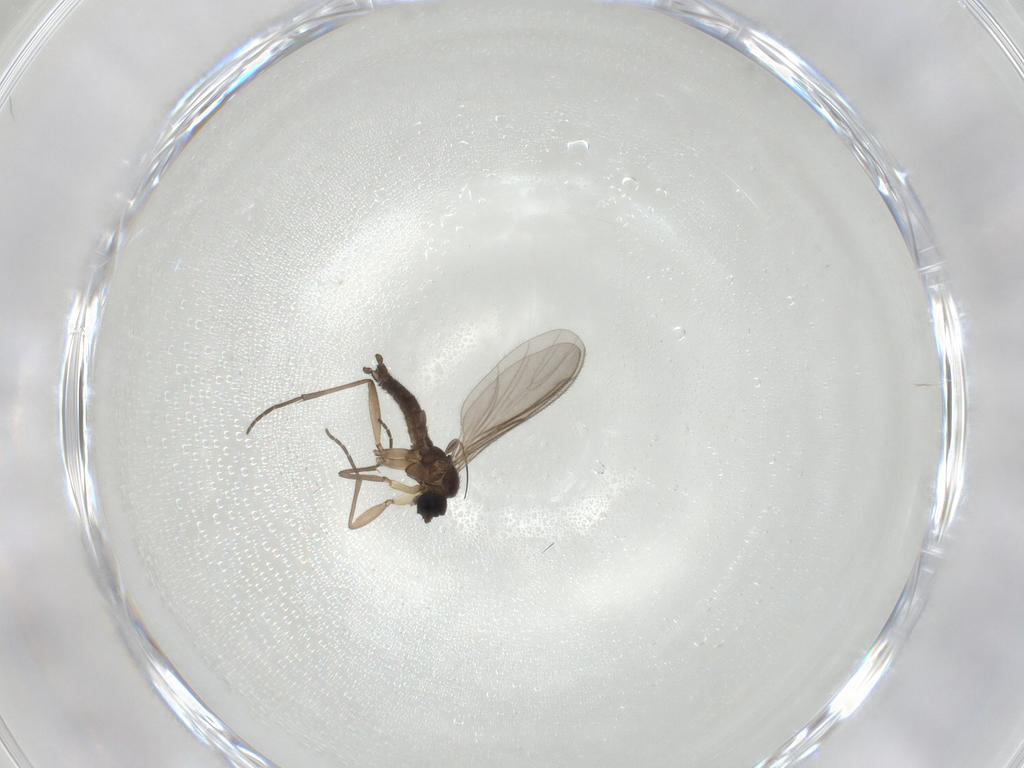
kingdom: Animalia
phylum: Arthropoda
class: Insecta
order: Diptera
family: Sciaridae
